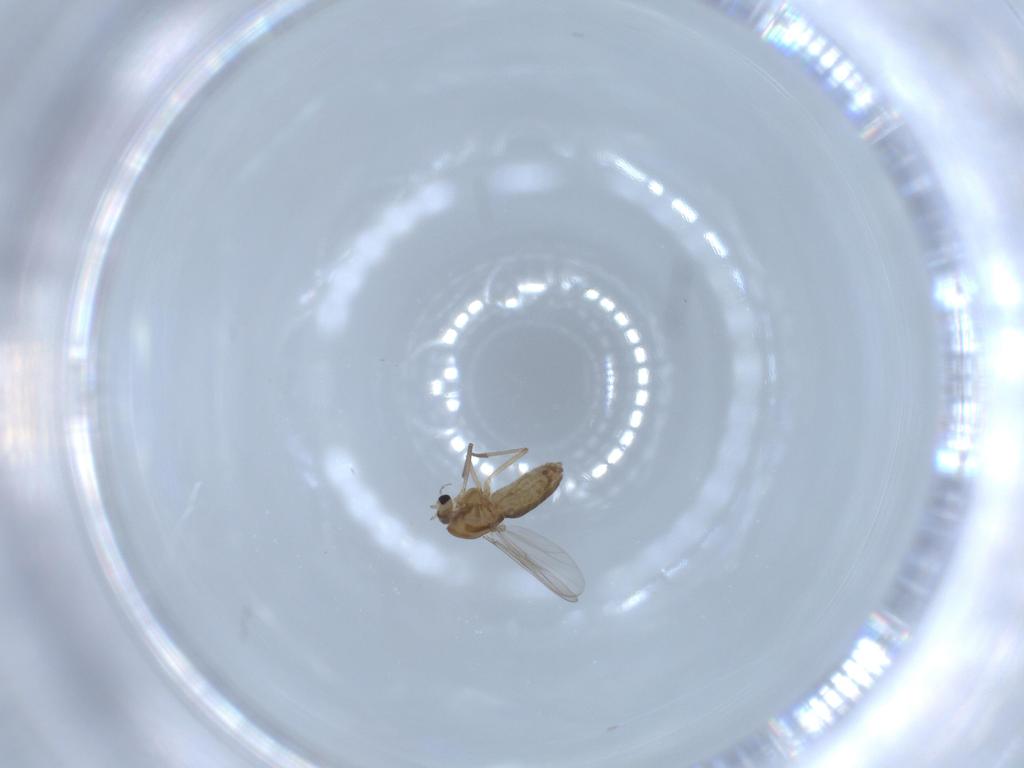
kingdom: Animalia
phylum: Arthropoda
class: Insecta
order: Diptera
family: Chironomidae
